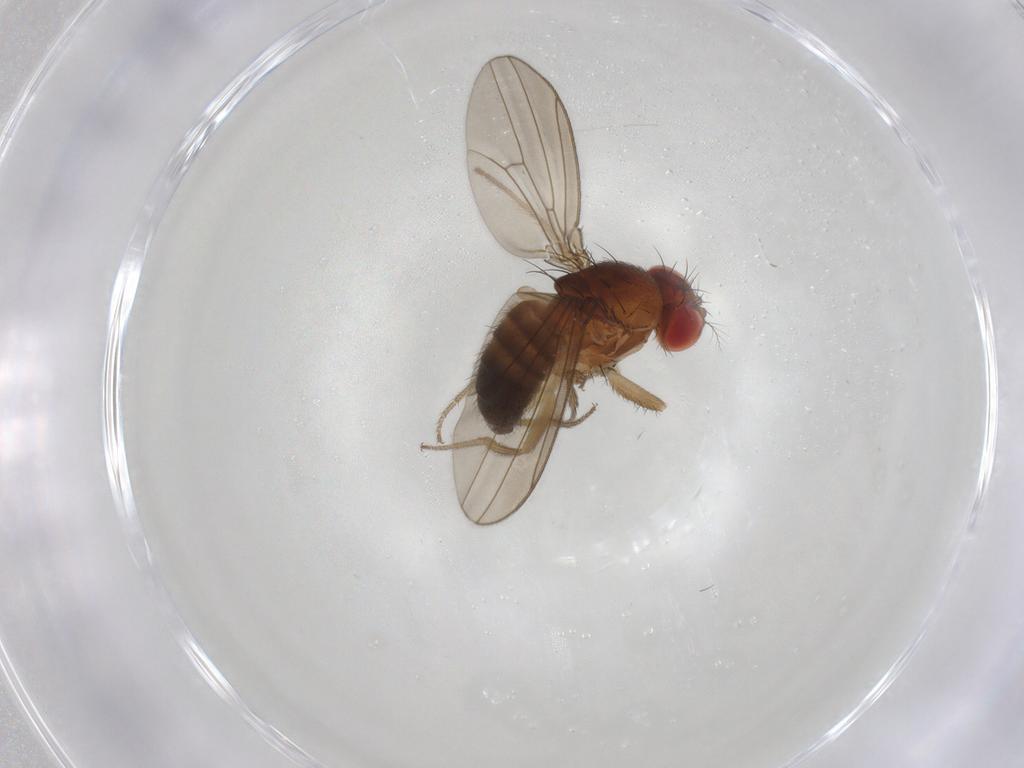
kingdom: Animalia
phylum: Arthropoda
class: Insecta
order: Diptera
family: Drosophilidae
